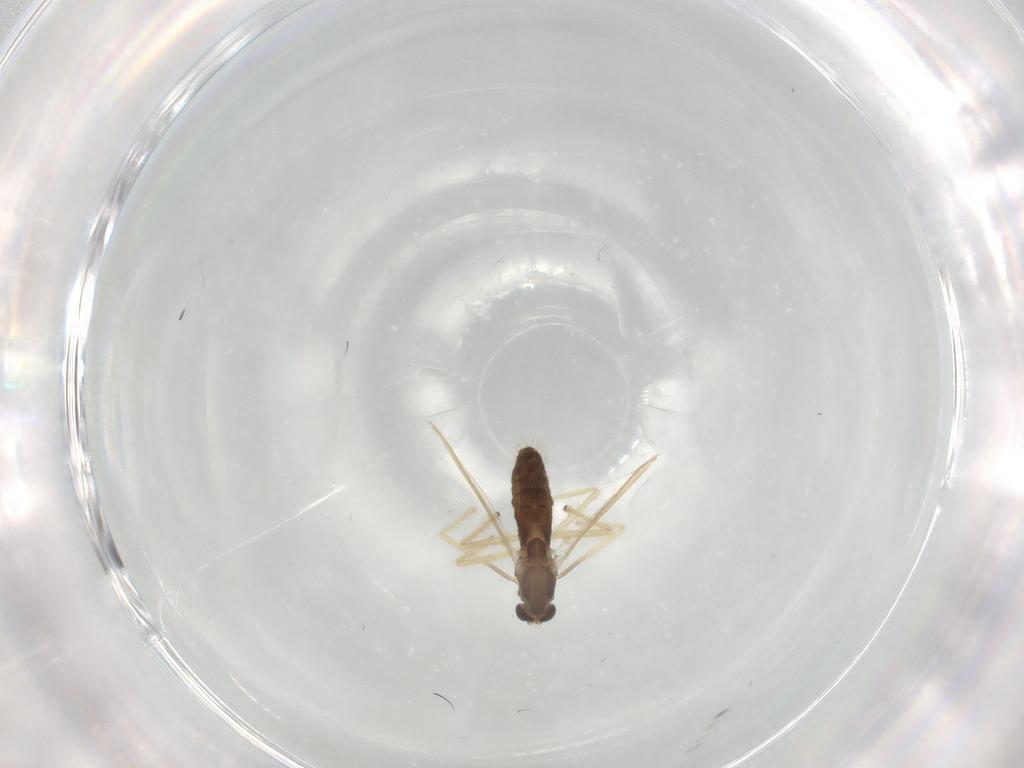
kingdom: Animalia
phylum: Arthropoda
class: Insecta
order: Diptera
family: Chironomidae
